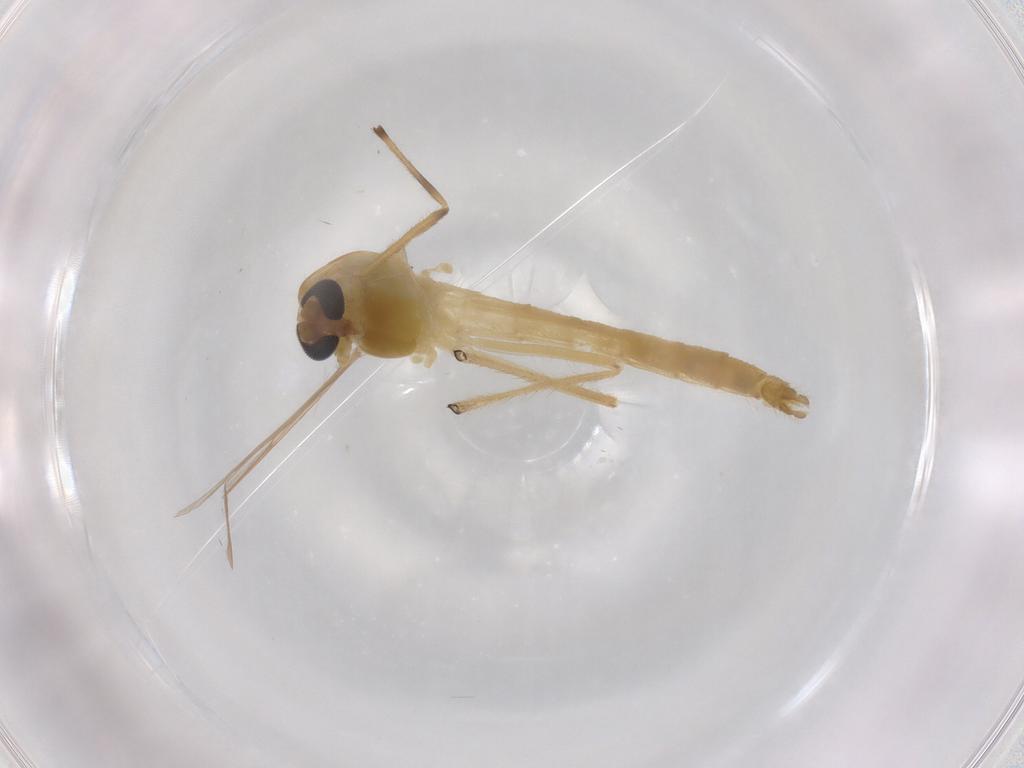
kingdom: Animalia
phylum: Arthropoda
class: Insecta
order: Diptera
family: Chironomidae
